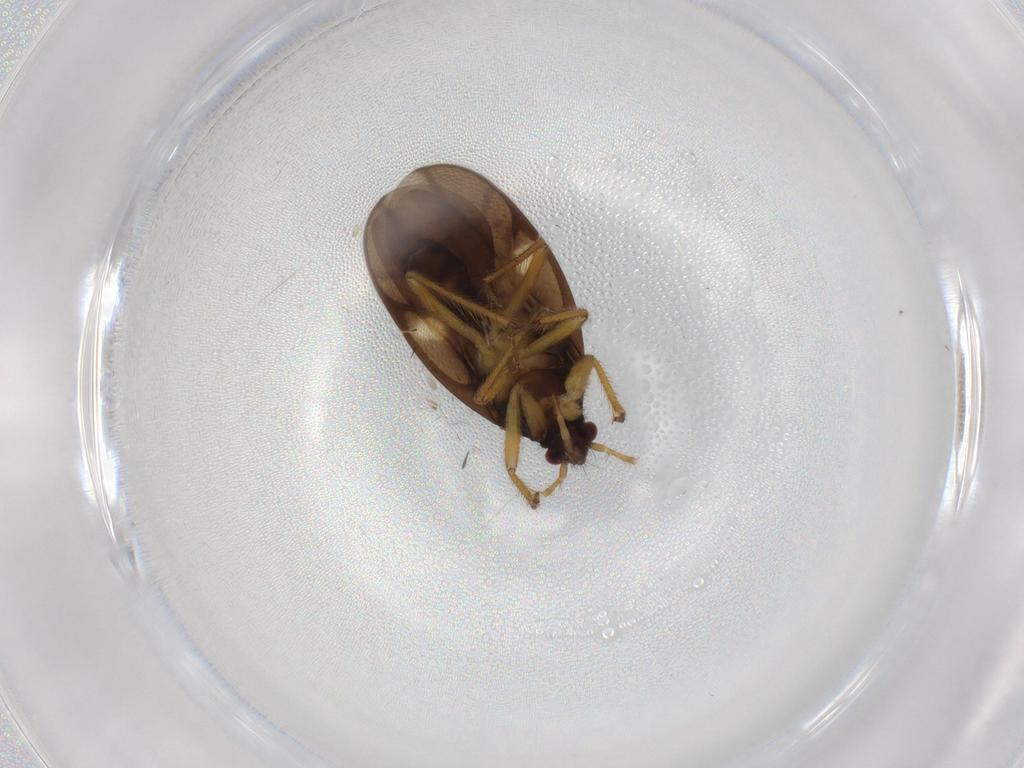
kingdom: Animalia
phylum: Arthropoda
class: Insecta
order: Hemiptera
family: Ceratocombidae
